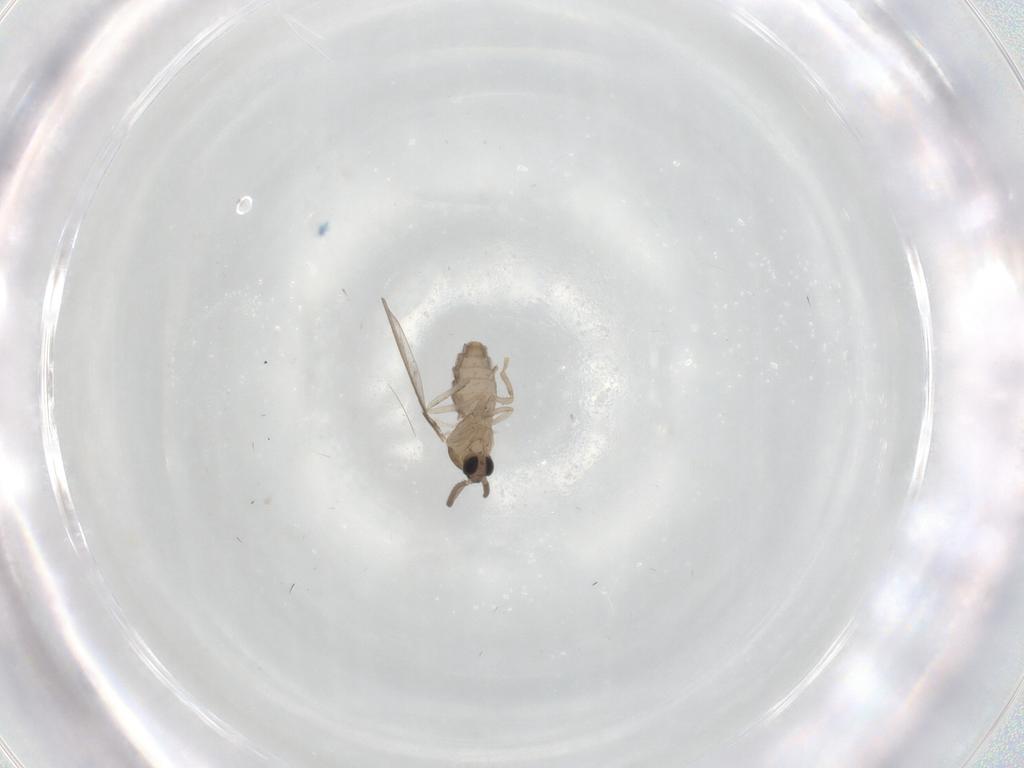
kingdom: Animalia
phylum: Arthropoda
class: Insecta
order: Diptera
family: Cecidomyiidae
